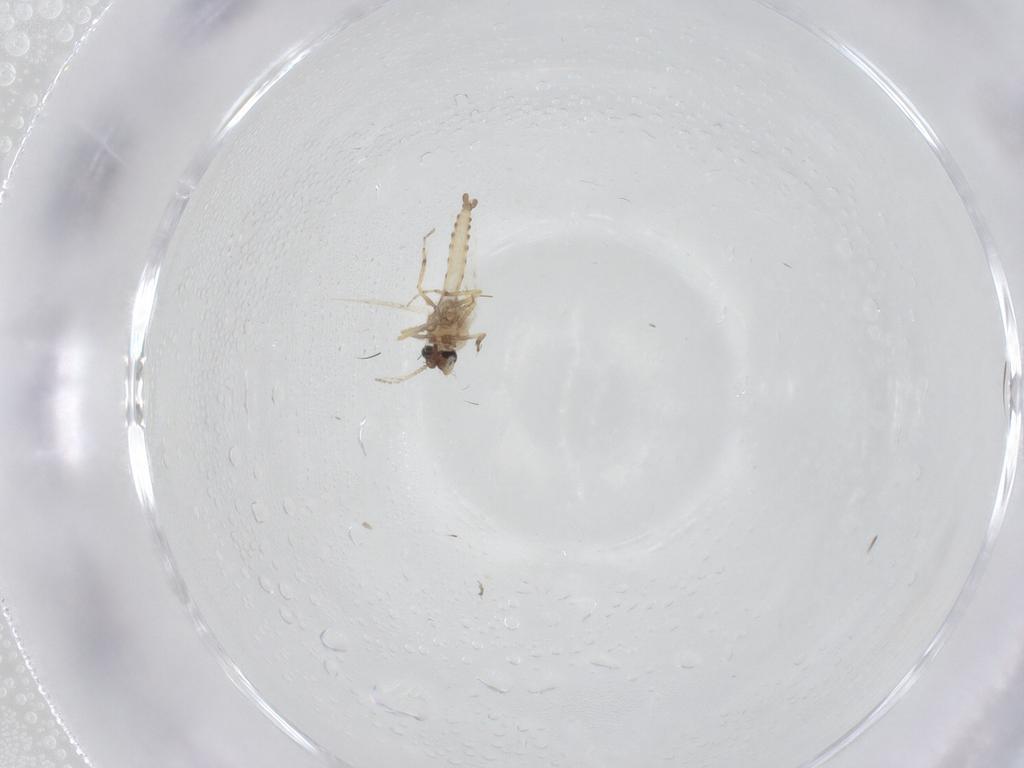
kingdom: Animalia
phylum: Arthropoda
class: Insecta
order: Diptera
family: Ceratopogonidae
